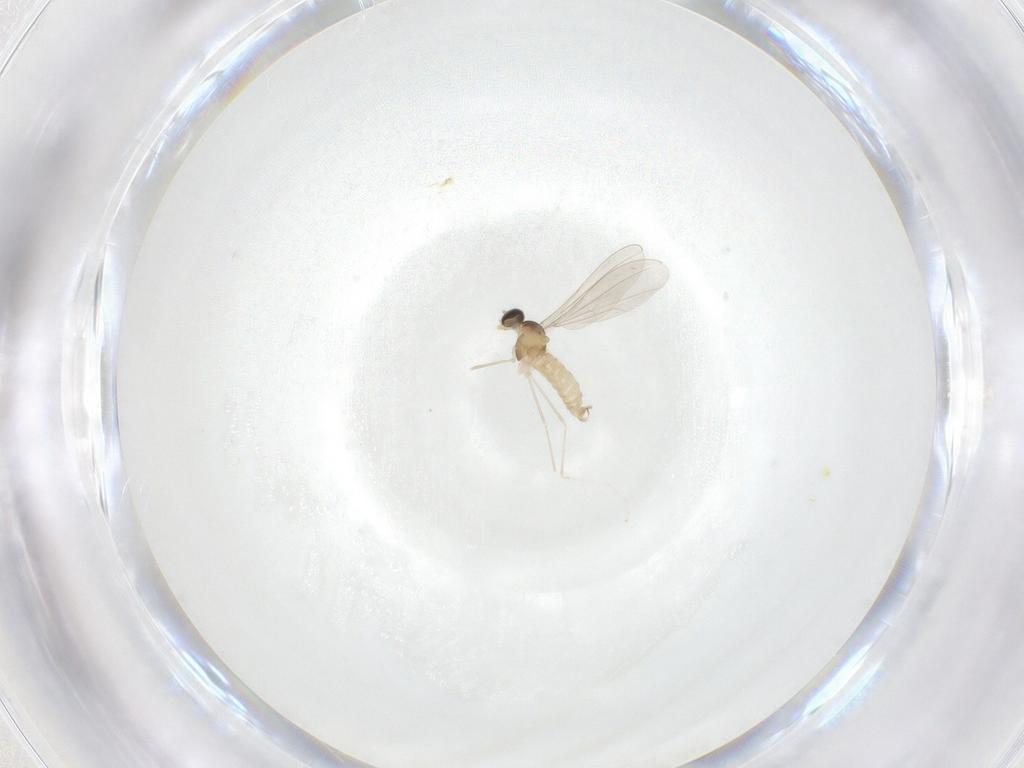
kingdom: Animalia
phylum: Arthropoda
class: Insecta
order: Diptera
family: Cecidomyiidae
